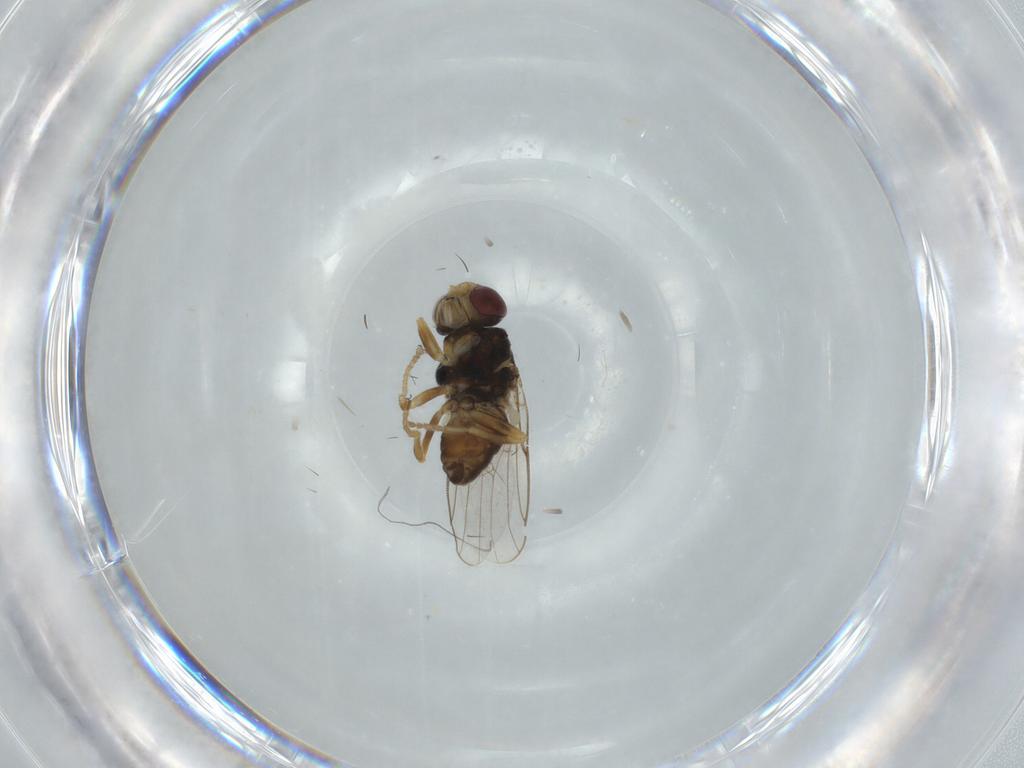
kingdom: Animalia
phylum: Arthropoda
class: Insecta
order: Diptera
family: Chloropidae
